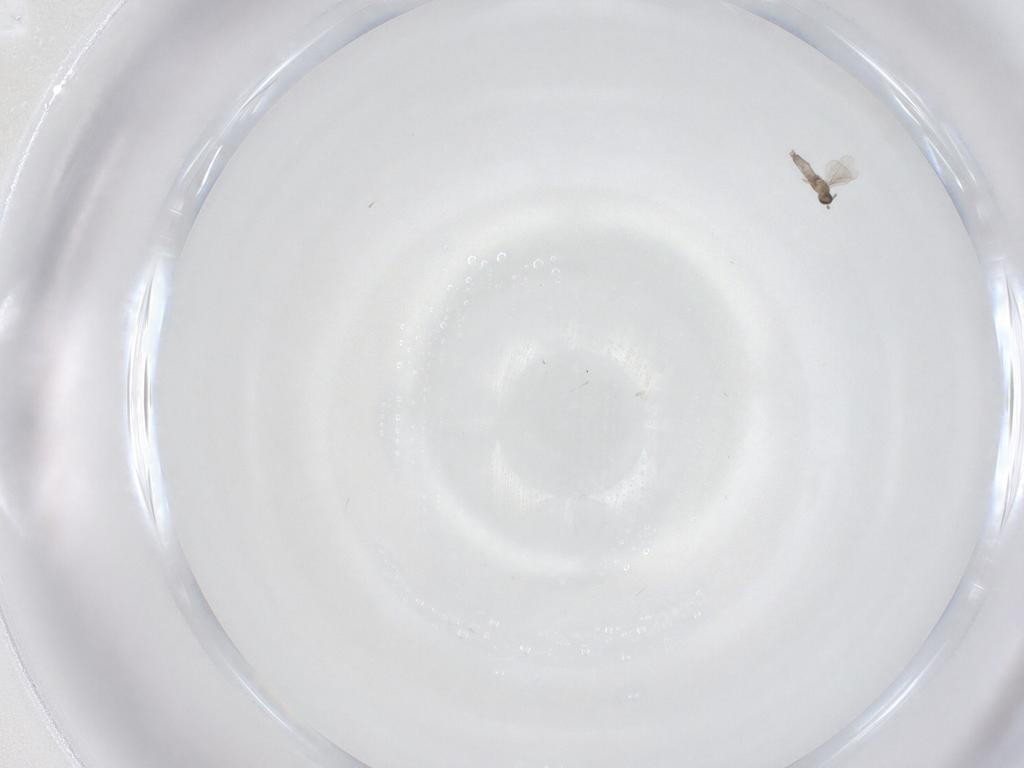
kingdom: Animalia
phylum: Arthropoda
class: Insecta
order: Diptera
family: Cecidomyiidae
